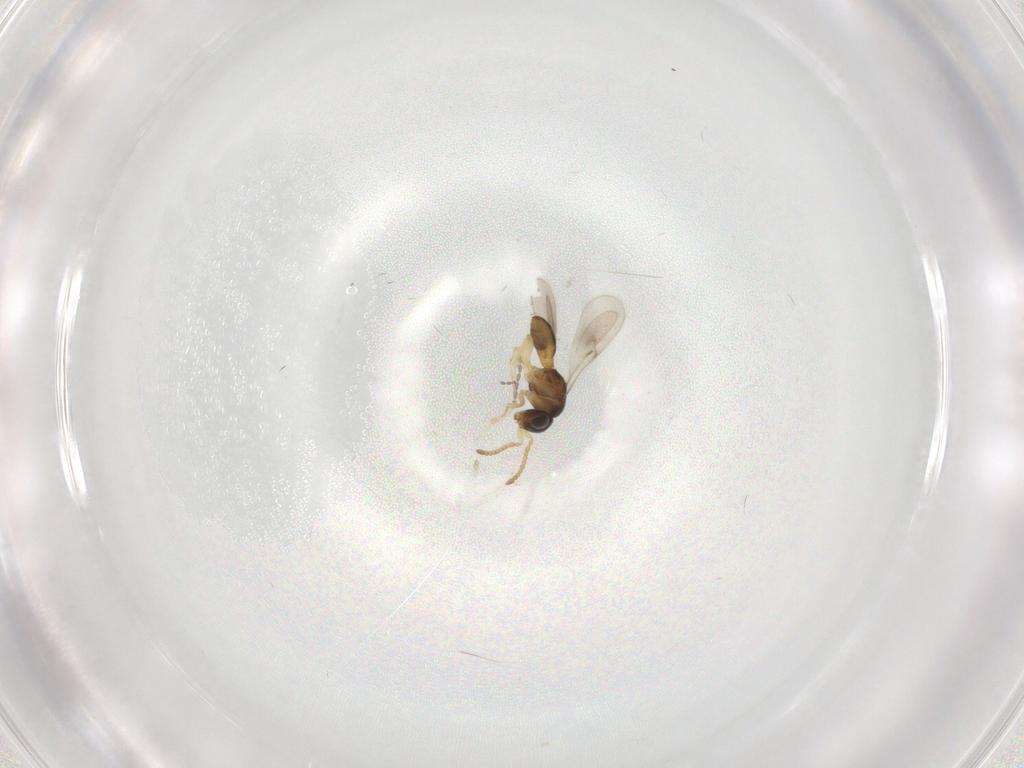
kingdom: Animalia
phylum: Arthropoda
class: Insecta
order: Hymenoptera
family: Scelionidae
